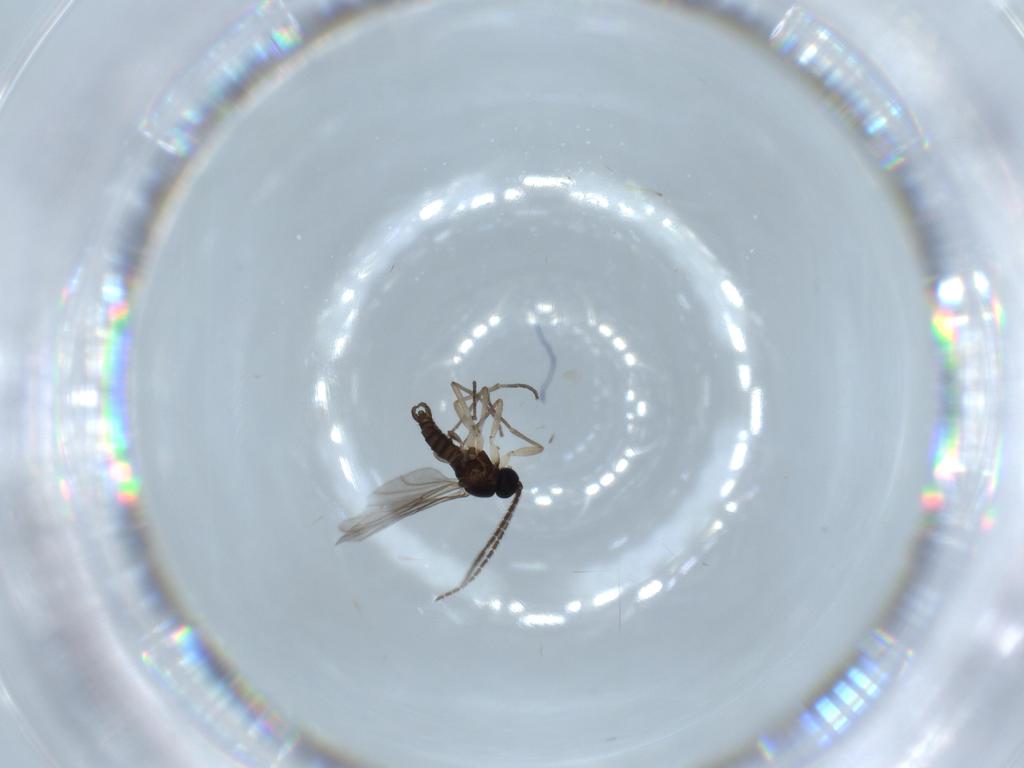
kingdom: Animalia
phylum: Arthropoda
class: Insecta
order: Diptera
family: Sciaridae
